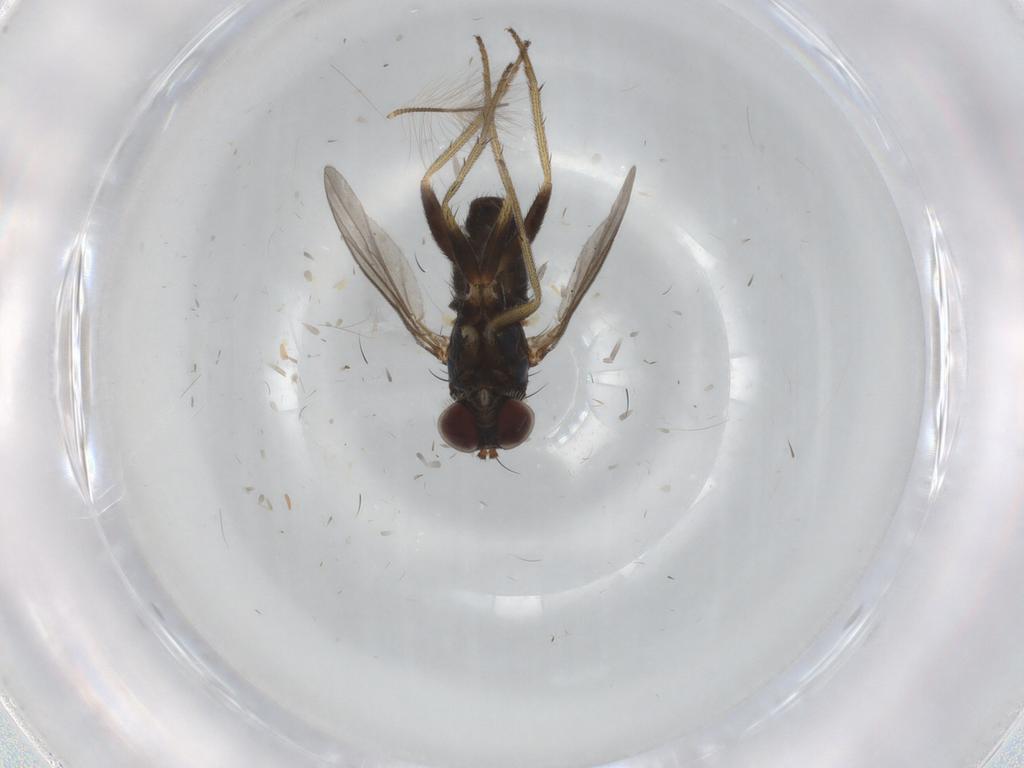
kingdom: Animalia
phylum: Arthropoda
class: Insecta
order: Diptera
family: Chironomidae
